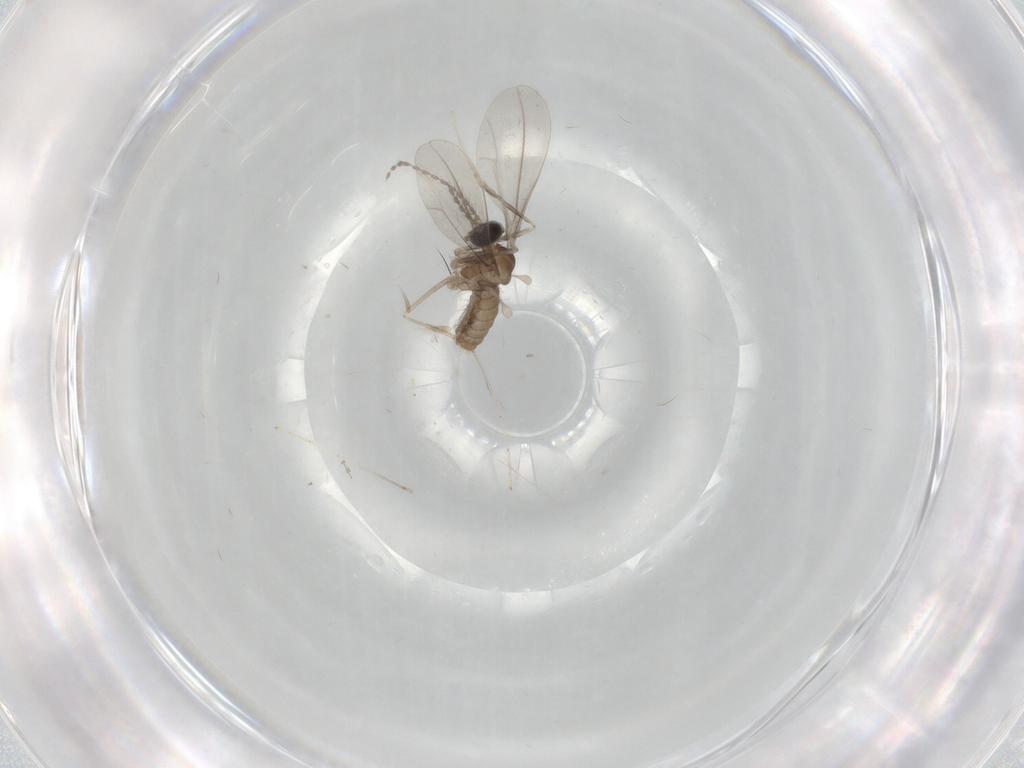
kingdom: Animalia
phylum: Arthropoda
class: Insecta
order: Diptera
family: Cecidomyiidae
